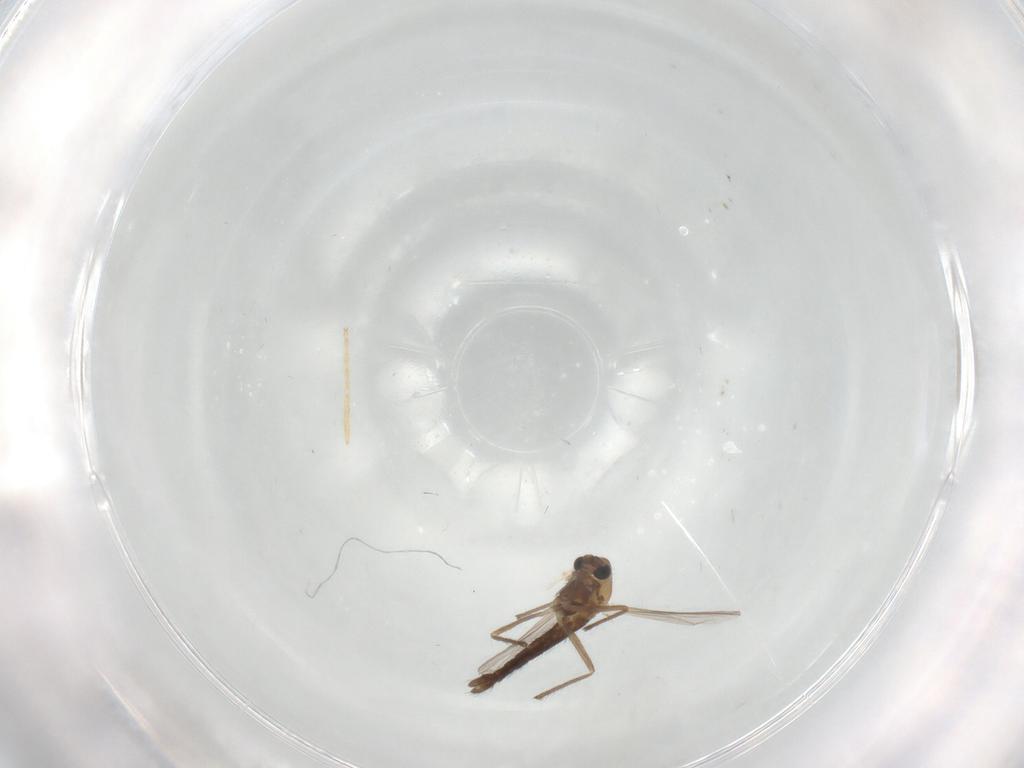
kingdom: Animalia
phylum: Arthropoda
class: Insecta
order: Diptera
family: Chironomidae
